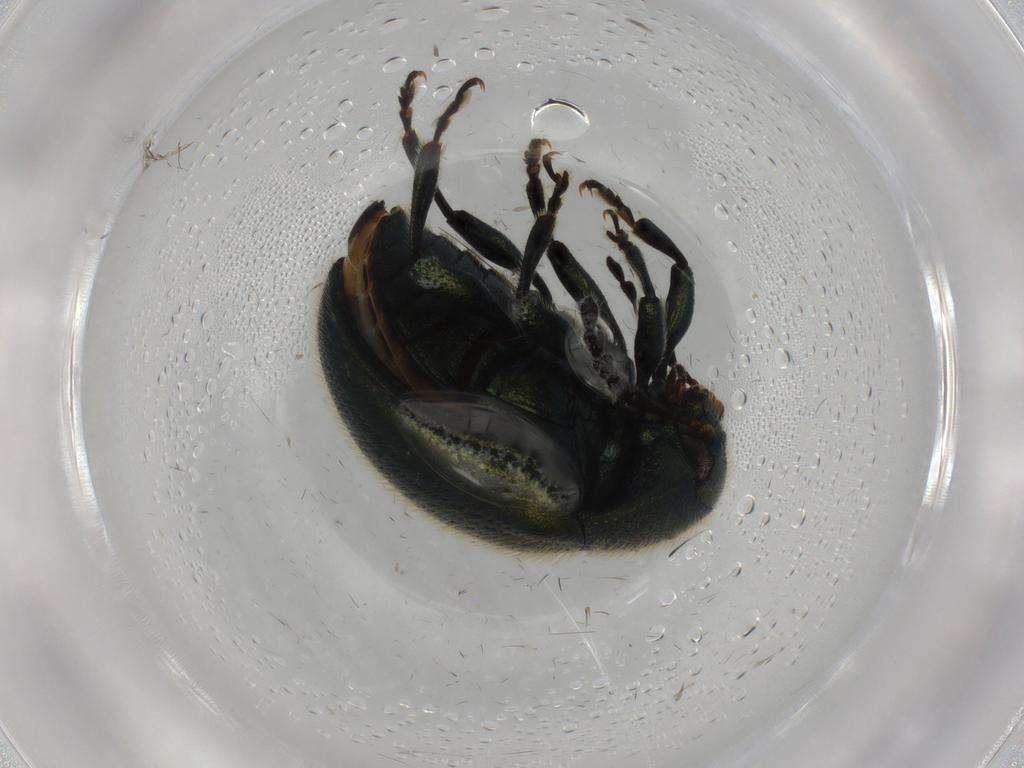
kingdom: Animalia
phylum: Arthropoda
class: Insecta
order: Coleoptera
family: Chrysomelidae
